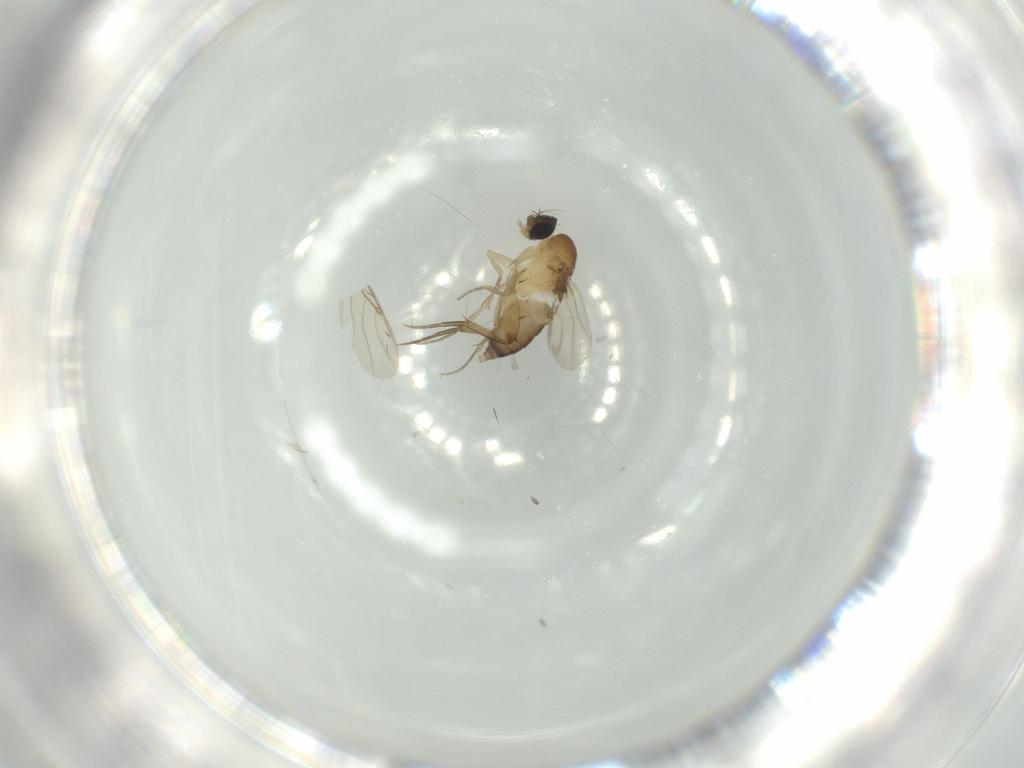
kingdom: Animalia
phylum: Arthropoda
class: Insecta
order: Diptera
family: Phoridae
